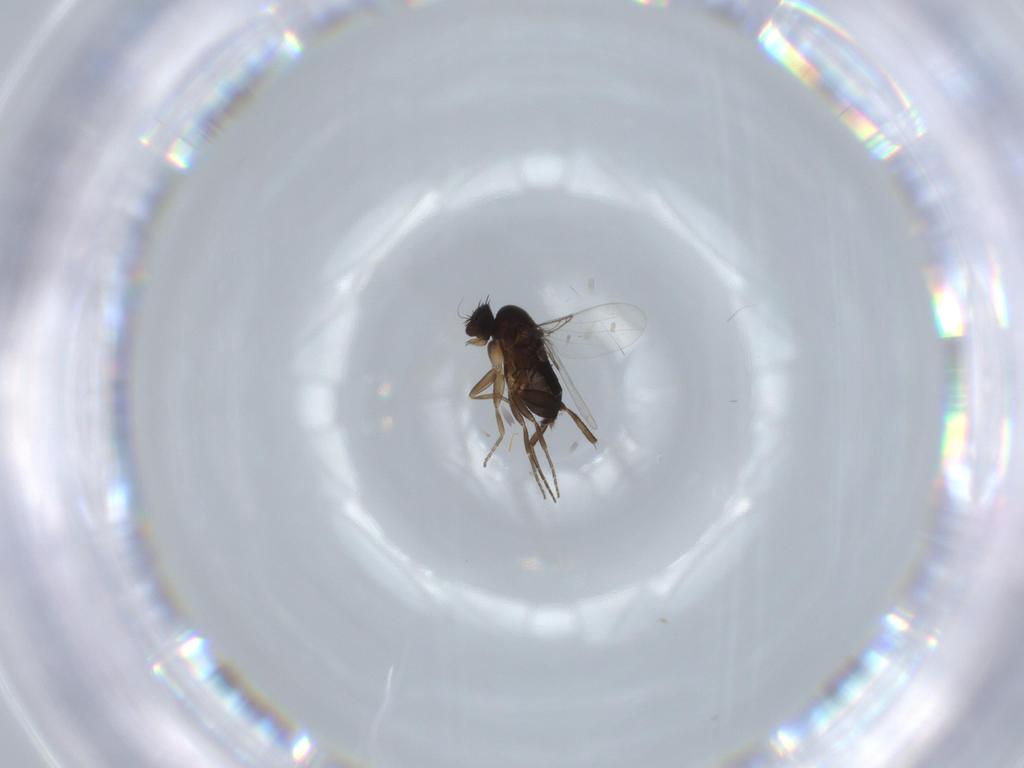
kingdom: Animalia
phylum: Arthropoda
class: Insecta
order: Diptera
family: Phoridae
